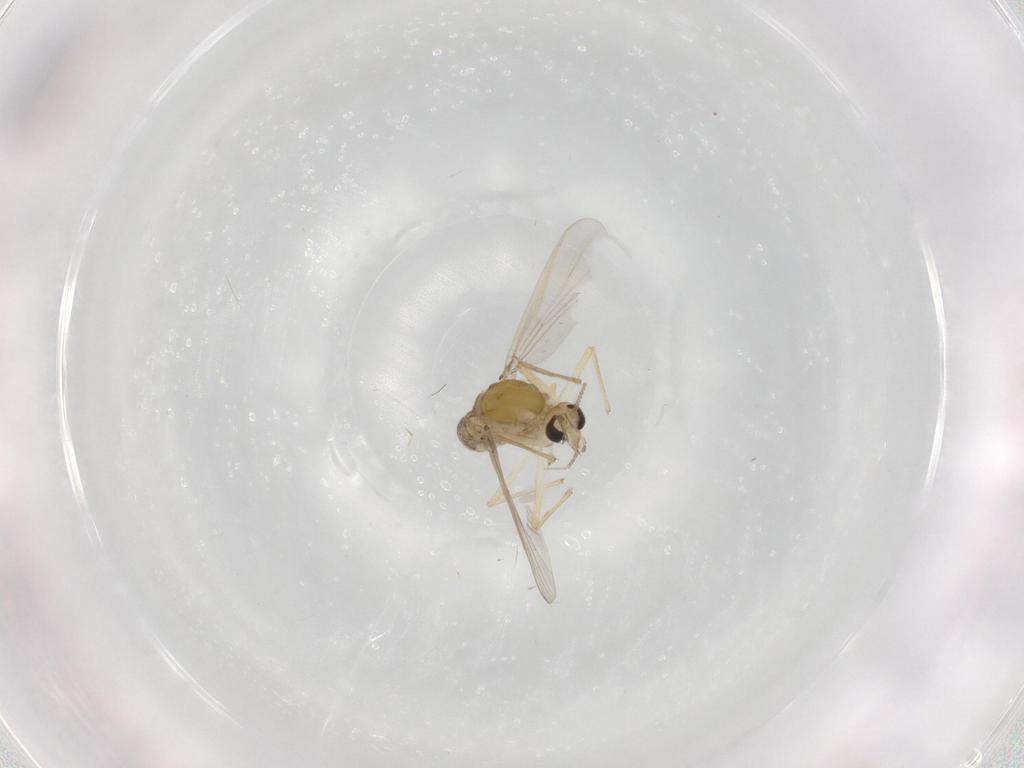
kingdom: Animalia
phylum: Arthropoda
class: Insecta
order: Diptera
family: Chironomidae
